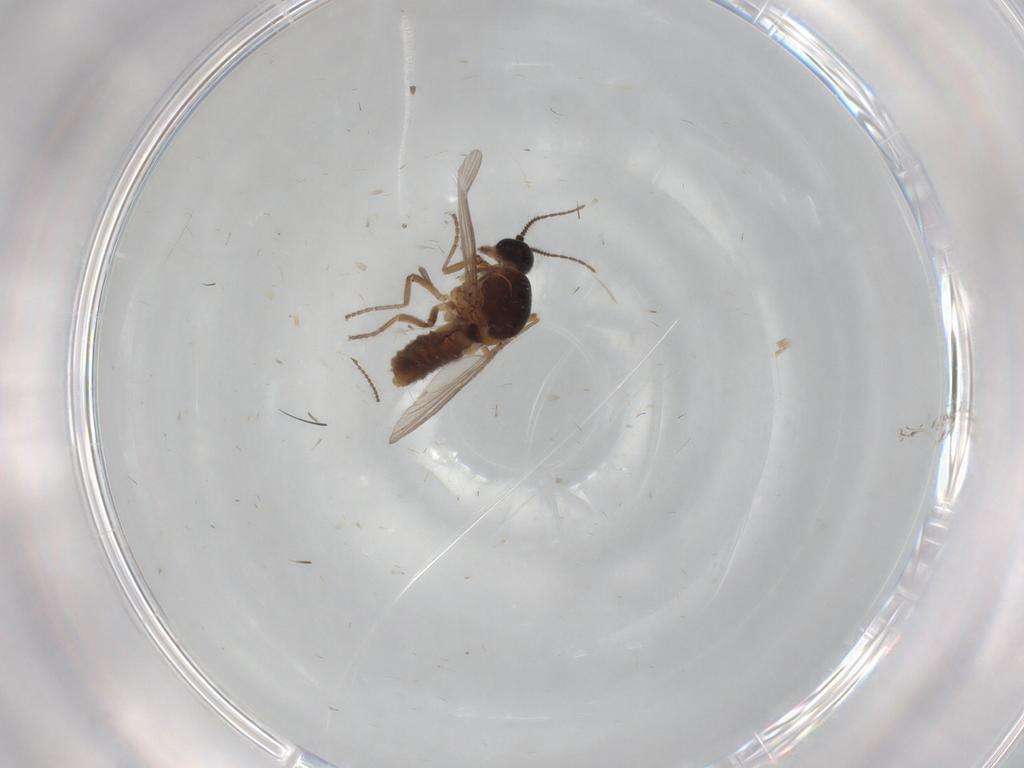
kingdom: Animalia
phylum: Arthropoda
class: Insecta
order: Diptera
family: Ceratopogonidae
